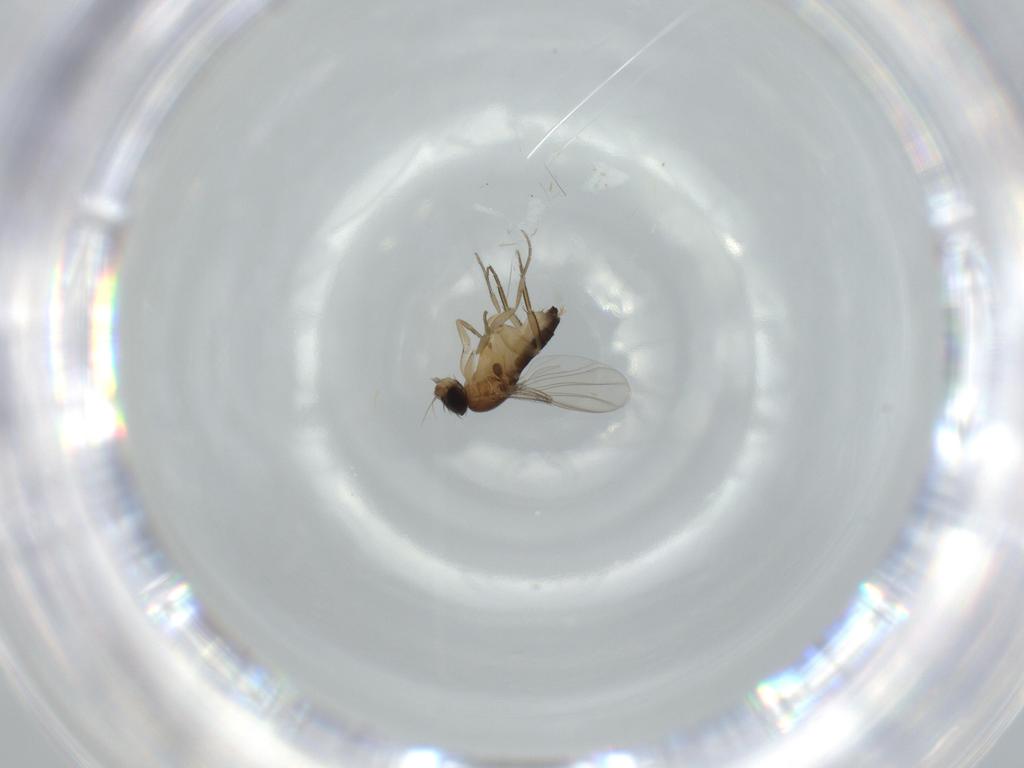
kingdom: Animalia
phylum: Arthropoda
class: Insecta
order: Diptera
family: Phoridae
